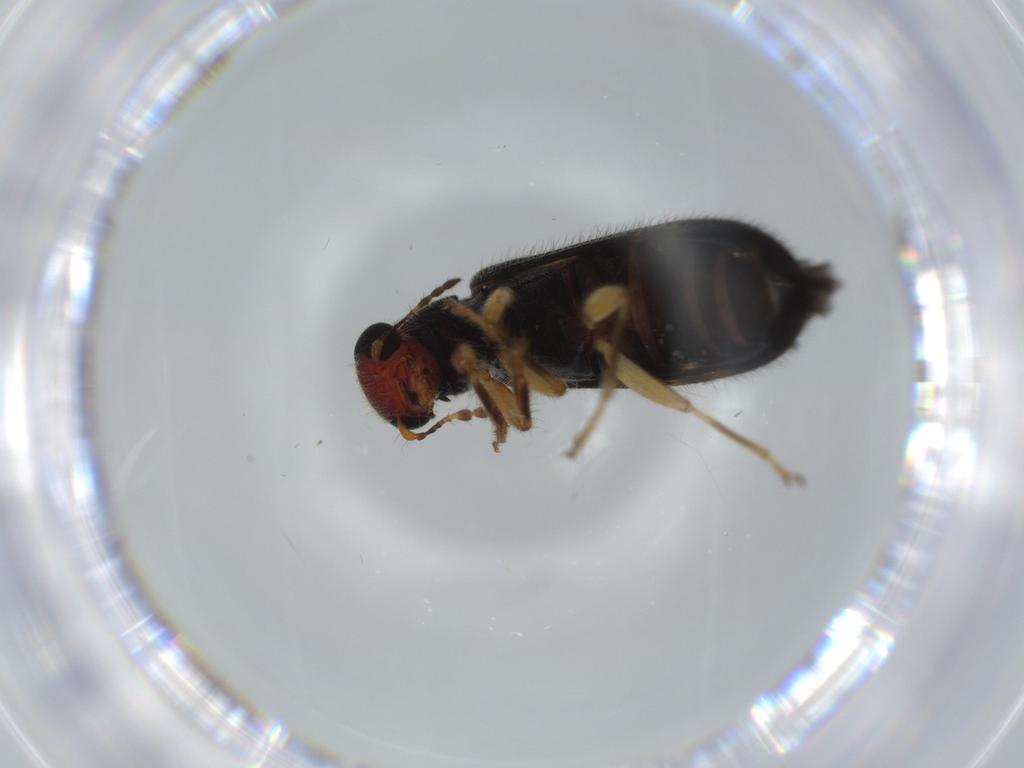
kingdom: Animalia
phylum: Arthropoda
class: Insecta
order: Coleoptera
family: Cleridae
